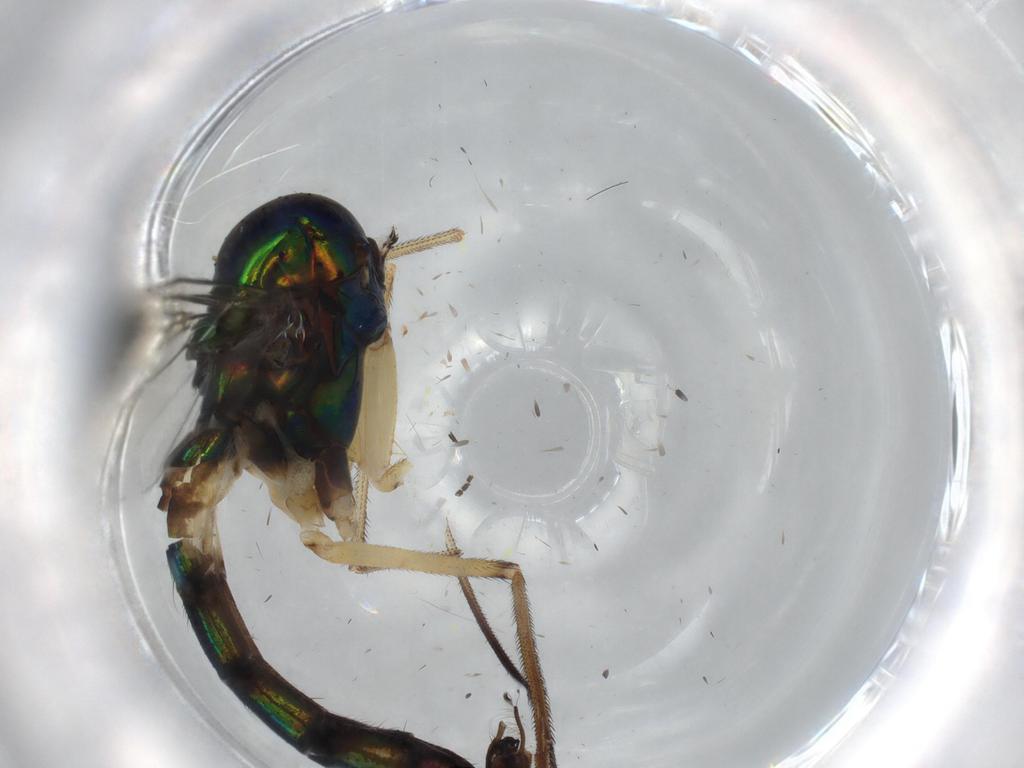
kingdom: Animalia
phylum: Arthropoda
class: Insecta
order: Diptera
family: Dolichopodidae
